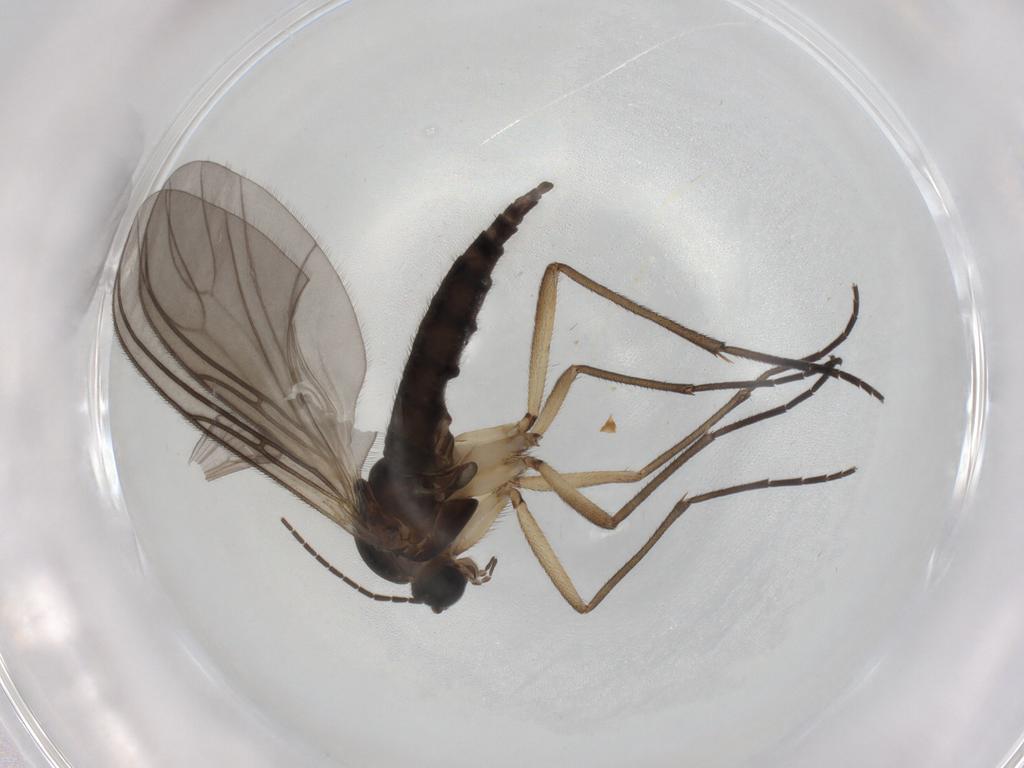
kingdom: Animalia
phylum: Arthropoda
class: Insecta
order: Diptera
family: Sciaridae
